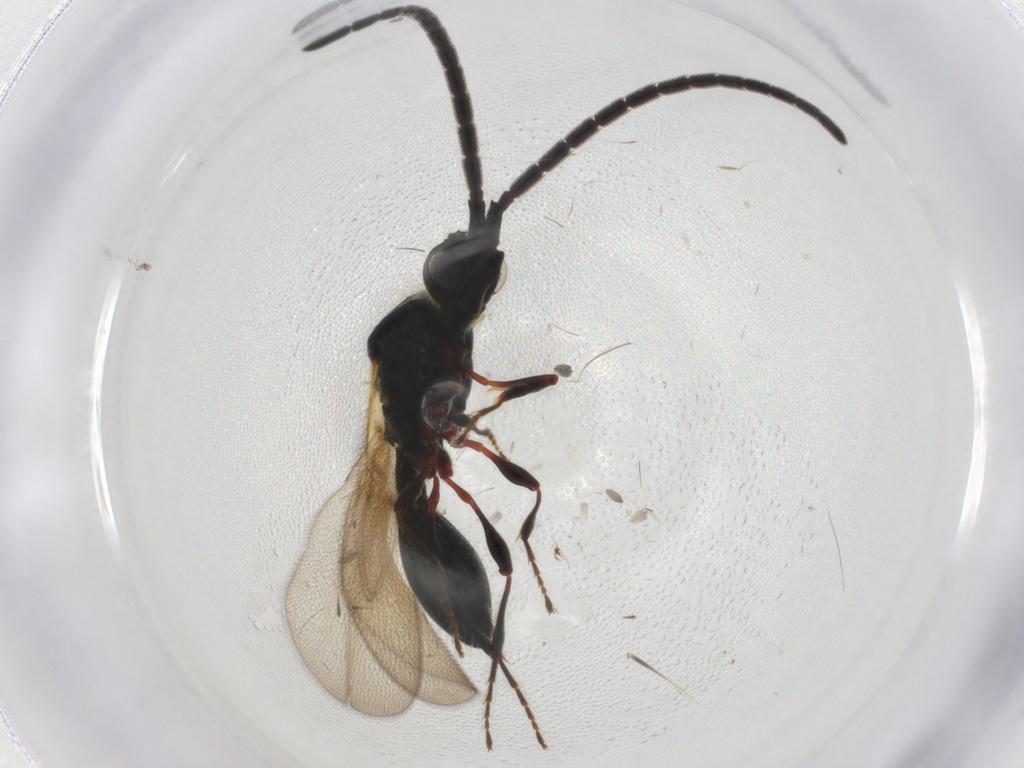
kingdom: Animalia
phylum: Arthropoda
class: Insecta
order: Hymenoptera
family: Diapriidae
